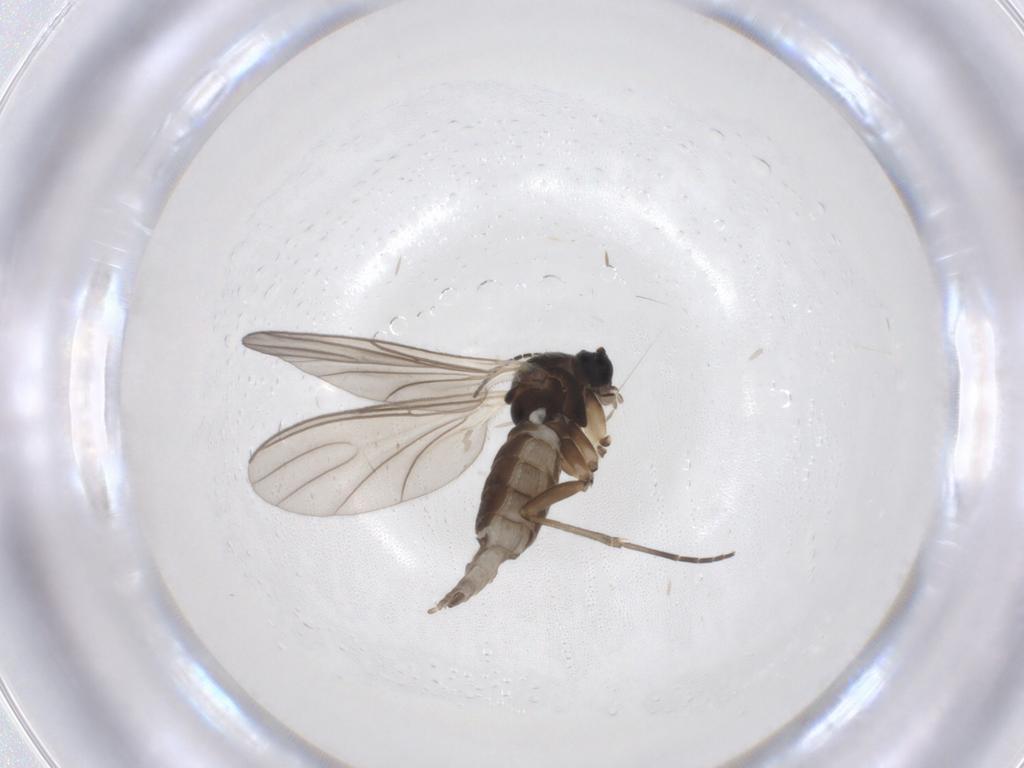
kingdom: Animalia
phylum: Arthropoda
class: Insecta
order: Diptera
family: Sciaridae
